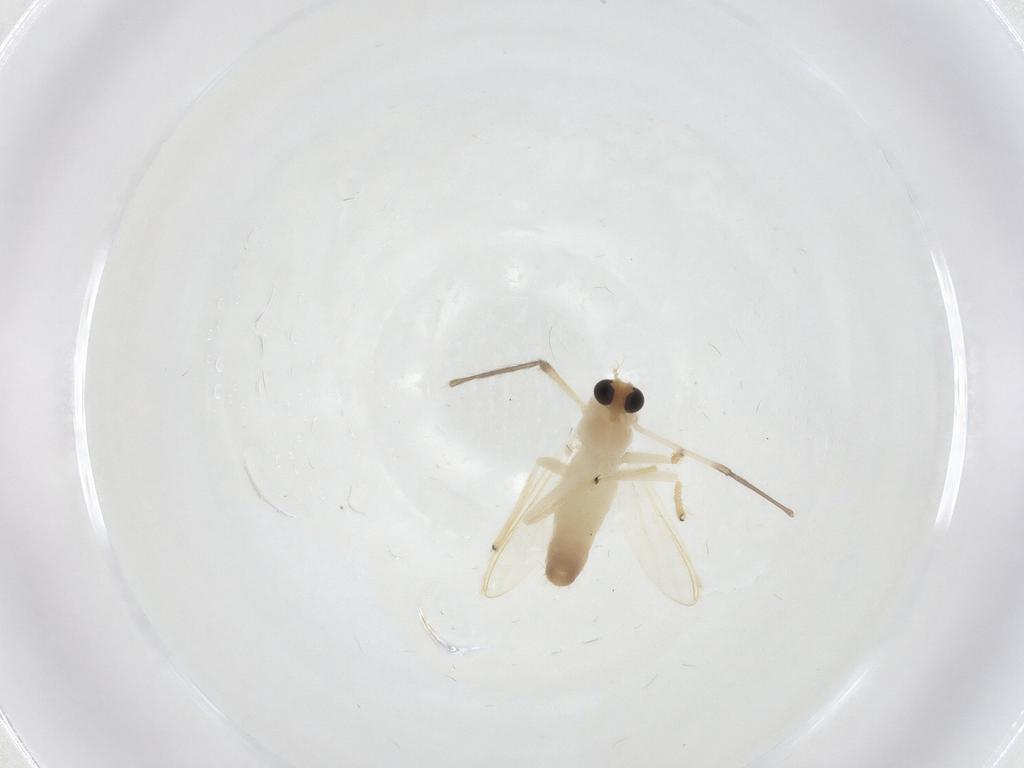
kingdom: Animalia
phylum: Arthropoda
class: Insecta
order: Diptera
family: Chironomidae
